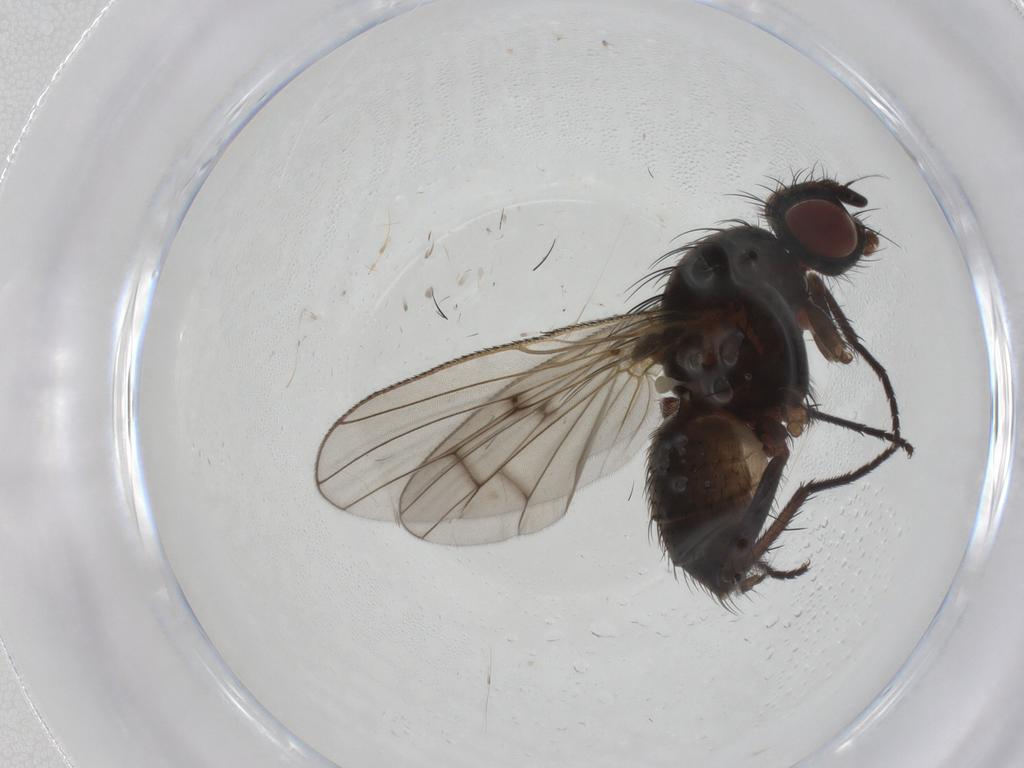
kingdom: Animalia
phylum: Arthropoda
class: Insecta
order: Diptera
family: Anthomyiidae
